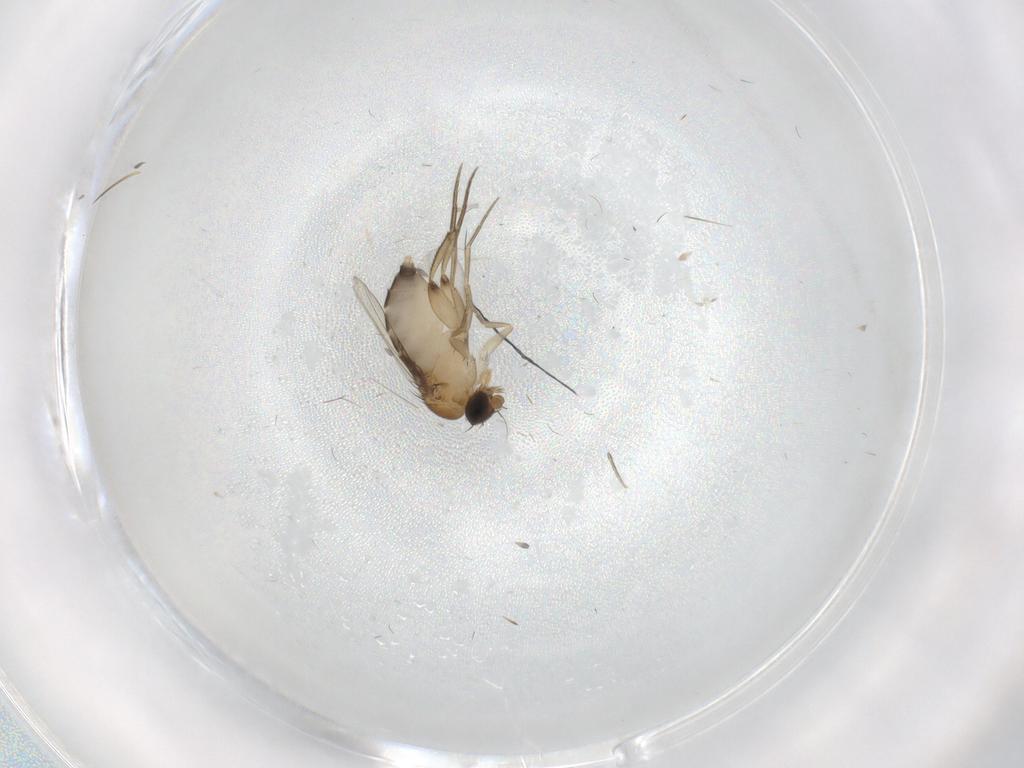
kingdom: Animalia
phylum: Arthropoda
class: Insecta
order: Diptera
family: Phoridae
